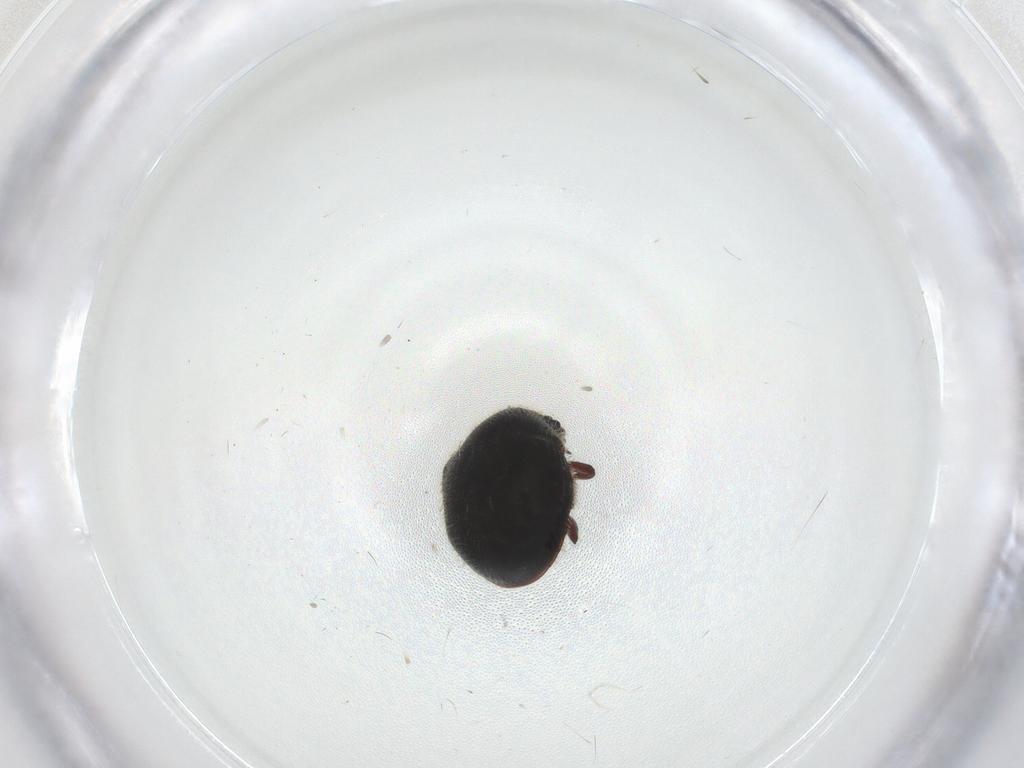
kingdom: Animalia
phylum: Arthropoda
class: Insecta
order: Coleoptera
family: Ptinidae
